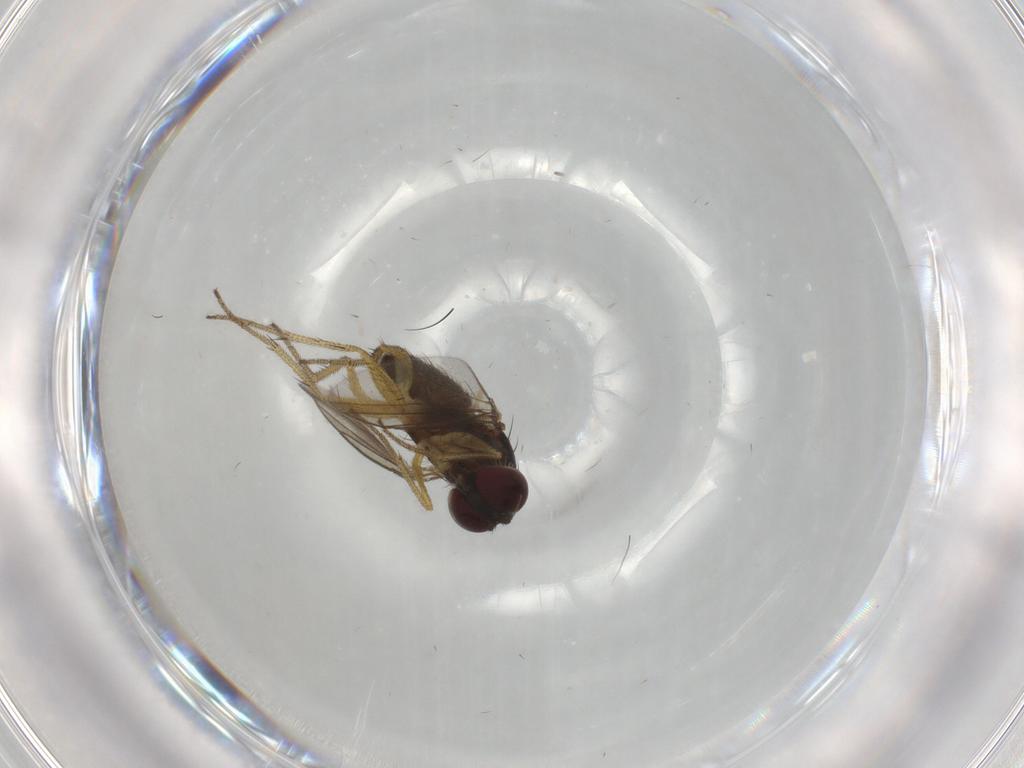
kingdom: Animalia
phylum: Arthropoda
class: Insecta
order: Diptera
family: Dolichopodidae
